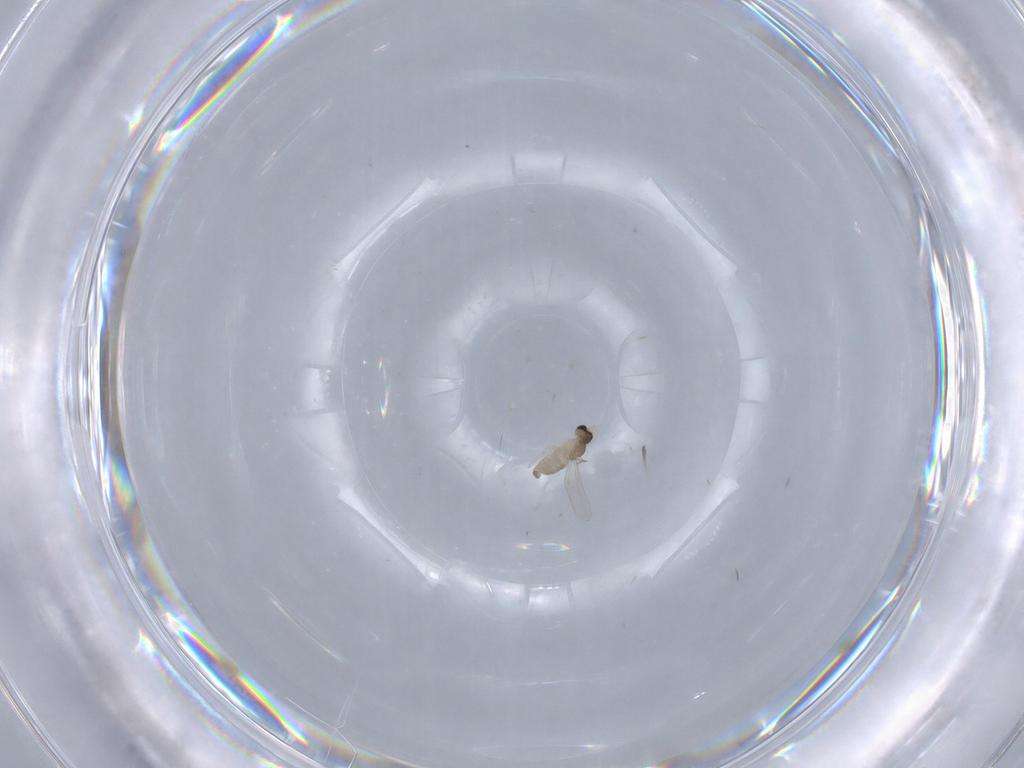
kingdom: Animalia
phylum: Arthropoda
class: Insecta
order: Diptera
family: Cecidomyiidae
